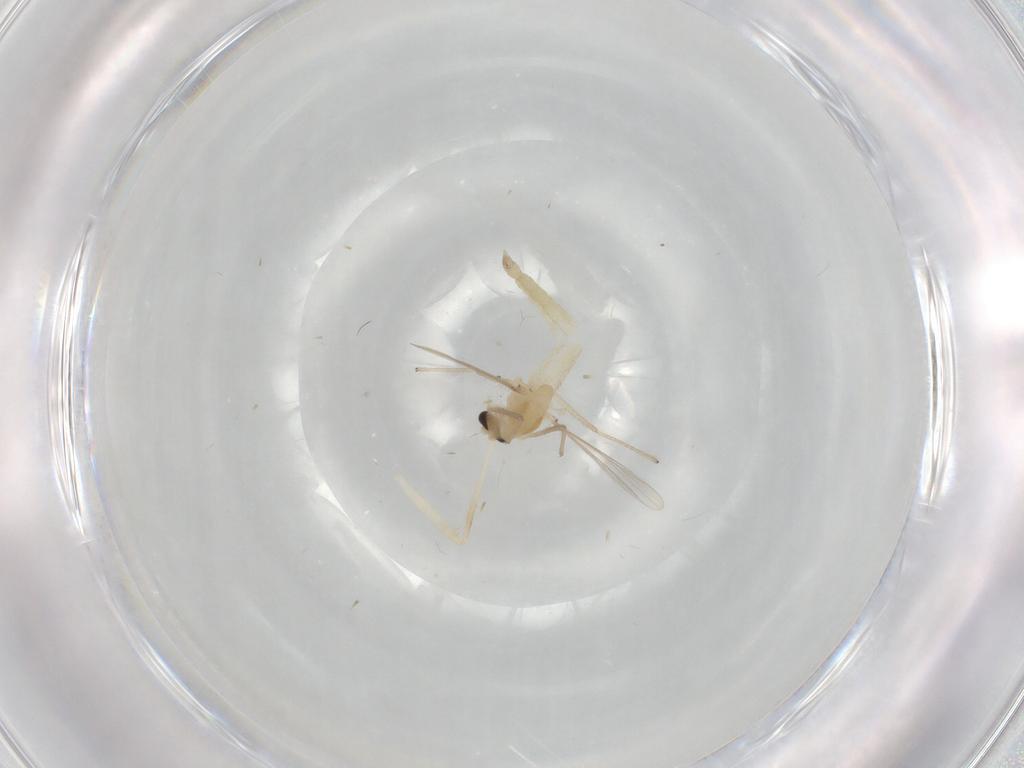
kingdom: Animalia
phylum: Arthropoda
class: Insecta
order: Diptera
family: Chironomidae
